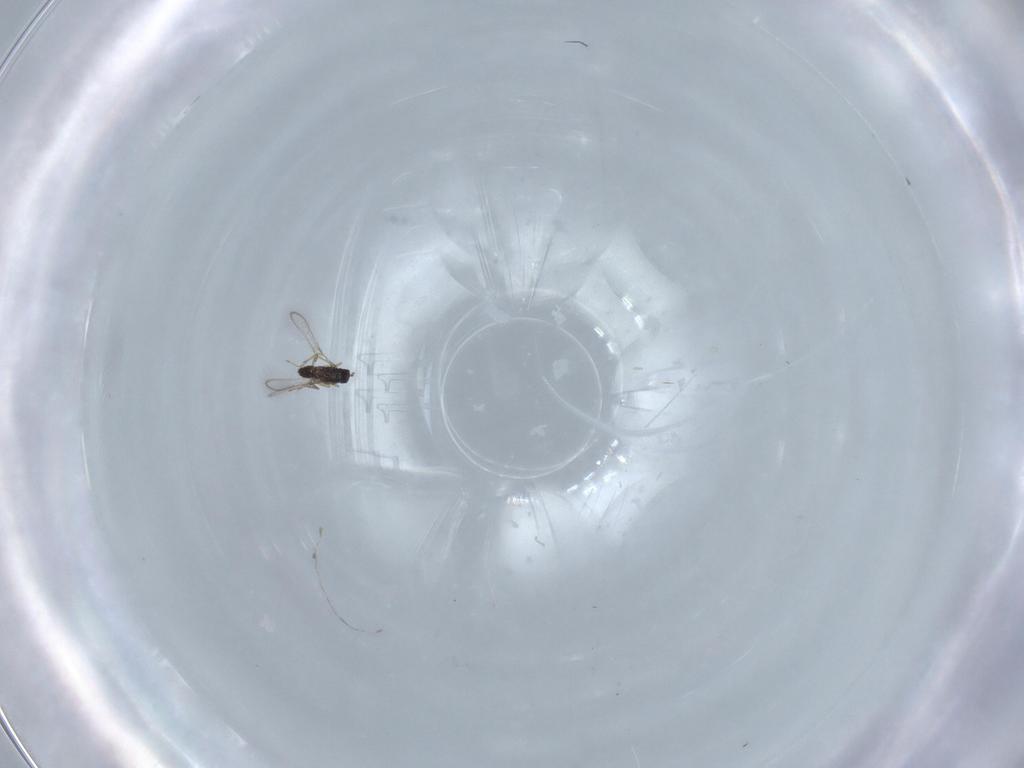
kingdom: Animalia
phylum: Arthropoda
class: Insecta
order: Hymenoptera
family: Mymaridae
